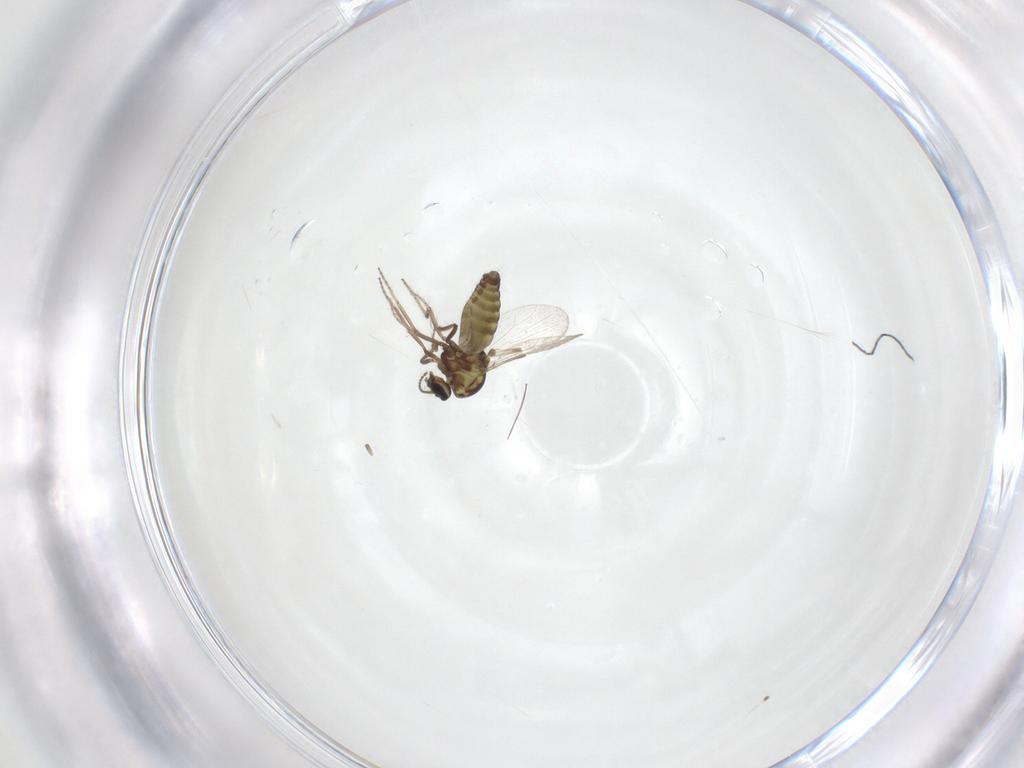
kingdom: Animalia
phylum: Arthropoda
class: Insecta
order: Diptera
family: Ceratopogonidae
